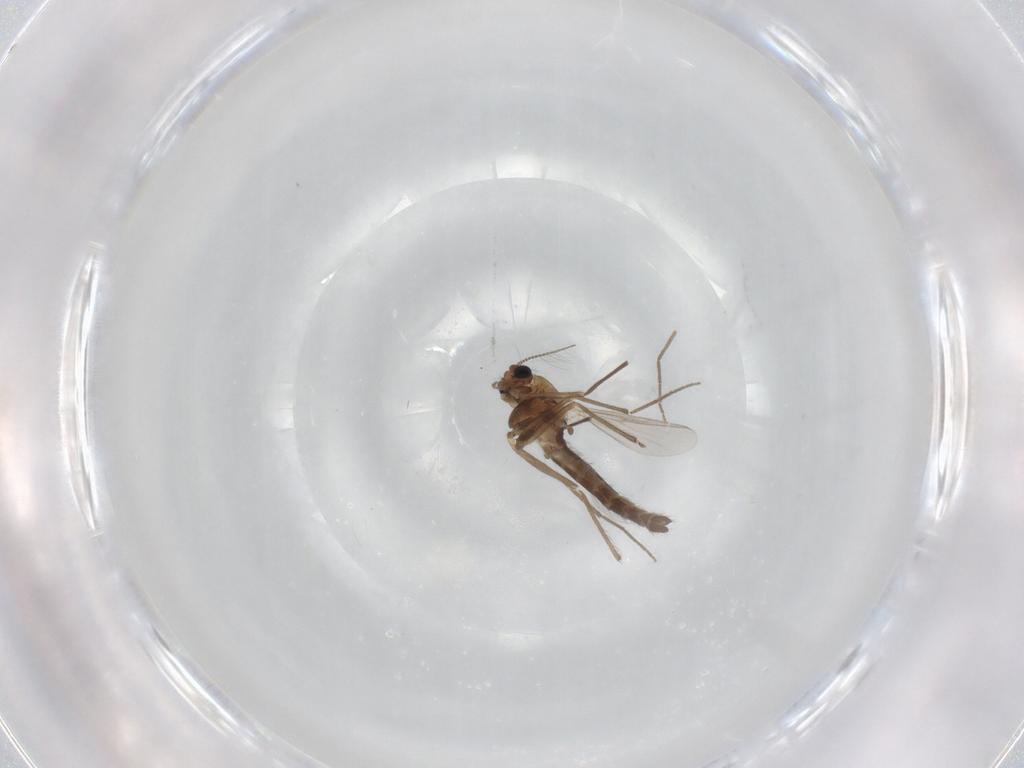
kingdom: Animalia
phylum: Arthropoda
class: Insecta
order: Diptera
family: Chironomidae
